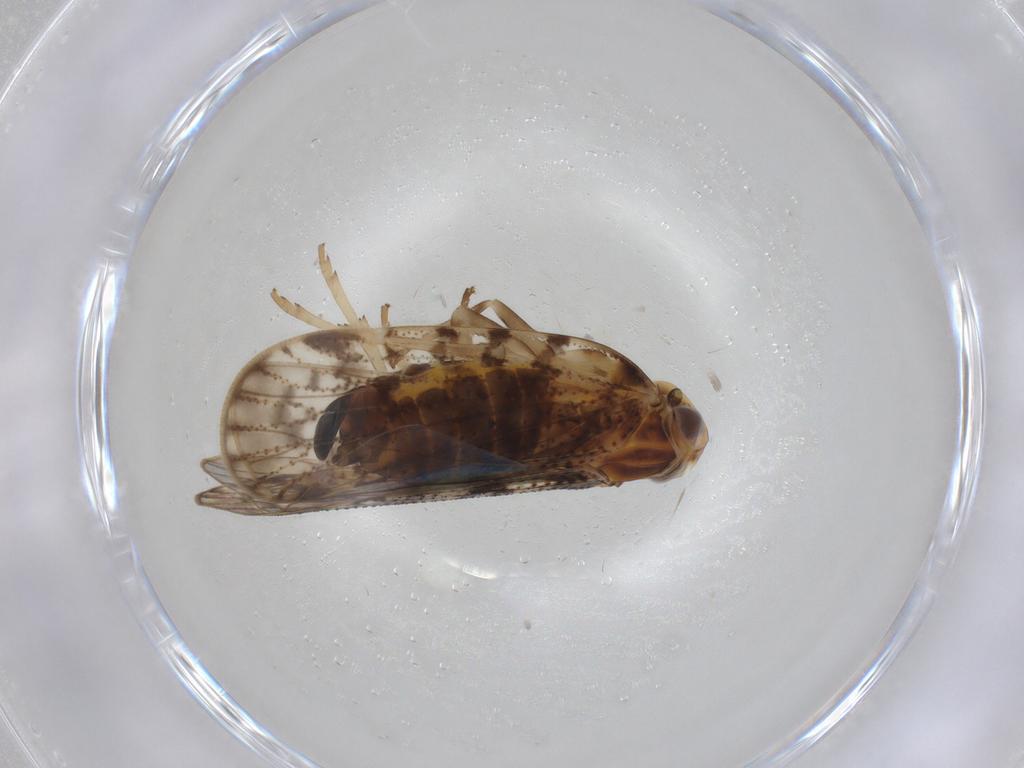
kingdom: Animalia
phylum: Arthropoda
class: Insecta
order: Diptera
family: Cecidomyiidae
